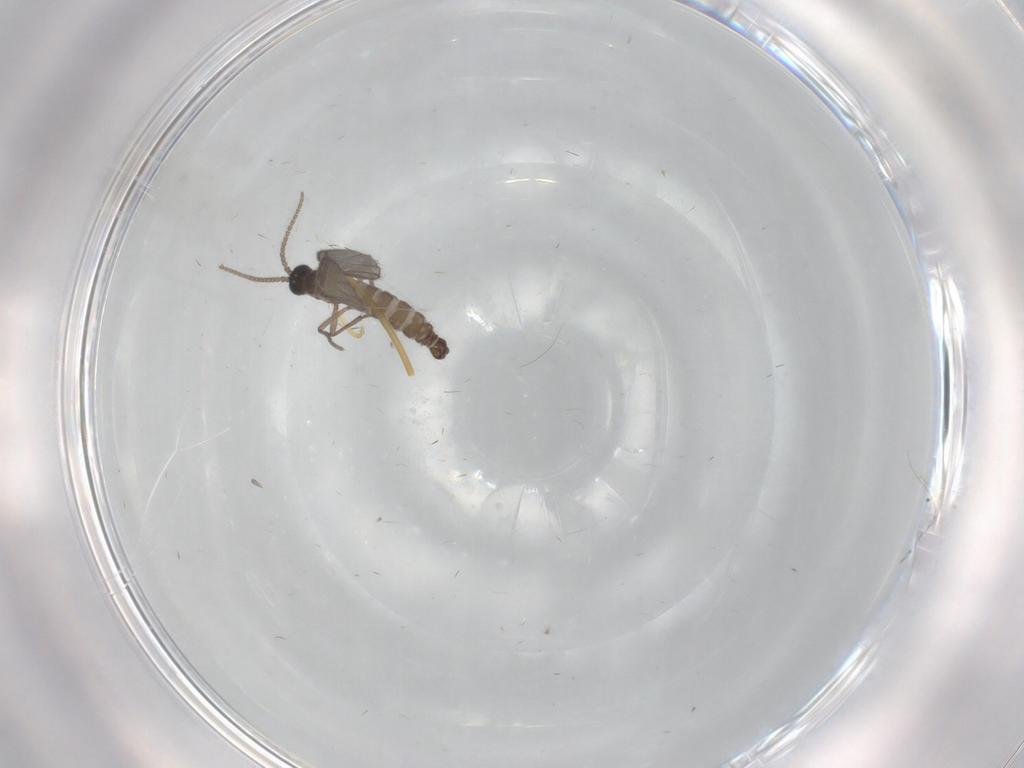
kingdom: Animalia
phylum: Arthropoda
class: Insecta
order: Diptera
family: Sciaridae
